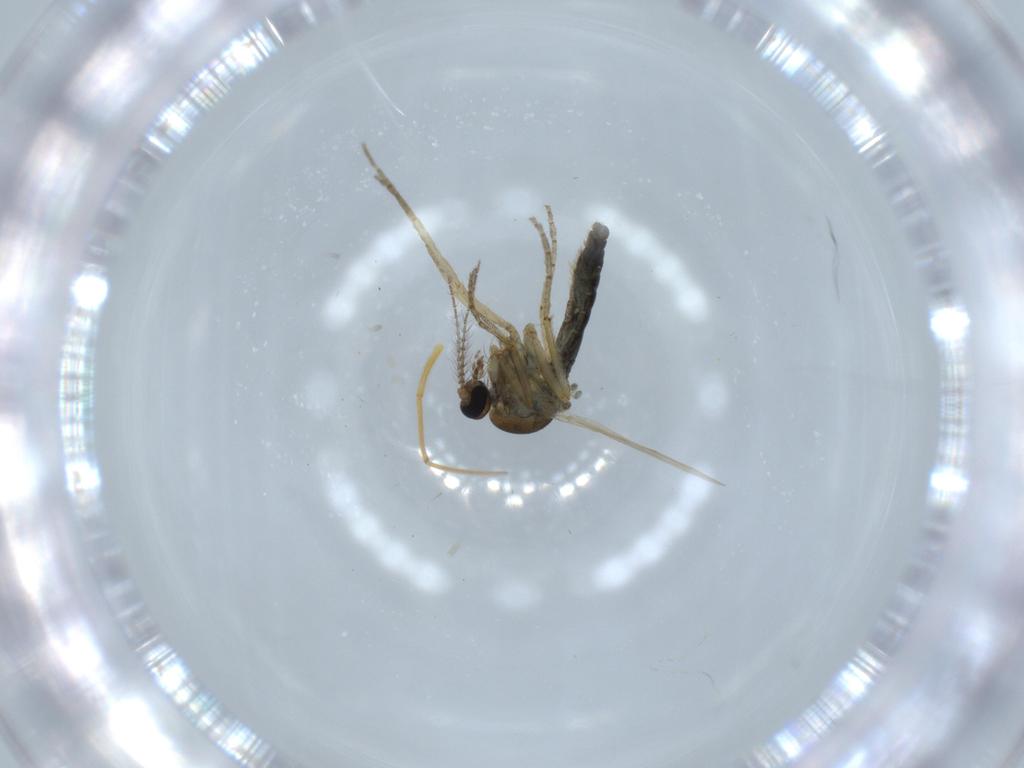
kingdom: Animalia
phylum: Arthropoda
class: Insecta
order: Diptera
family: Ceratopogonidae
